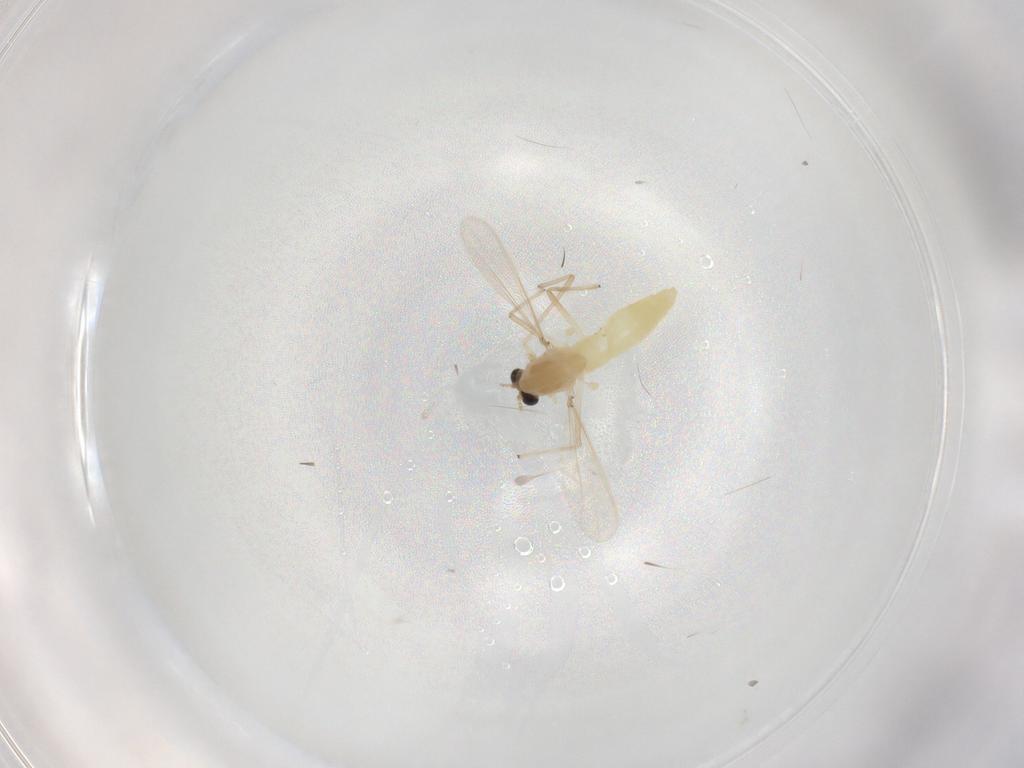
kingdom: Animalia
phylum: Arthropoda
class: Insecta
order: Diptera
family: Chironomidae
